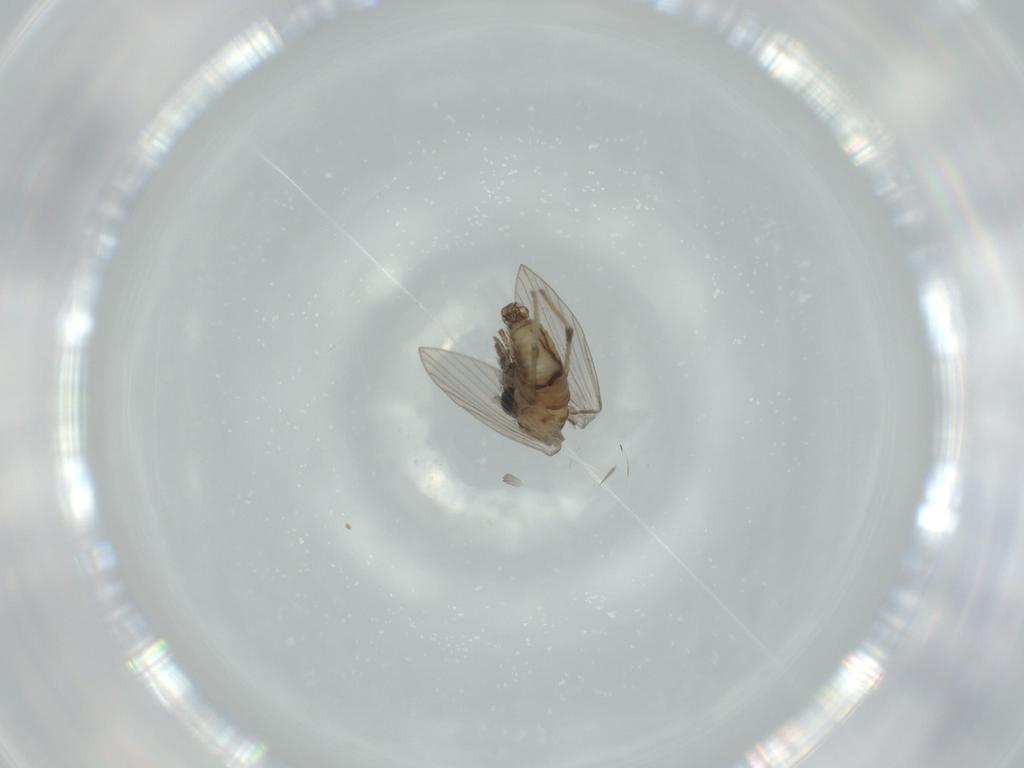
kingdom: Animalia
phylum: Arthropoda
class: Insecta
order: Diptera
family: Psychodidae
